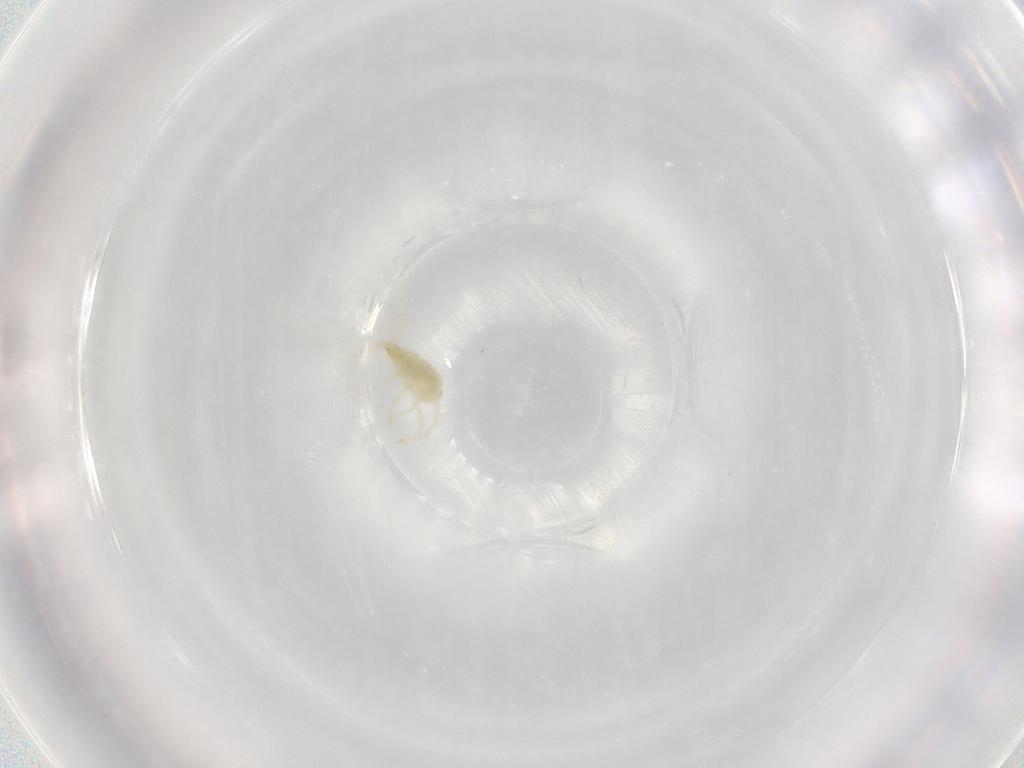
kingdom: Animalia
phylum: Arthropoda
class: Arachnida
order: Trombidiformes
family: Erythraeidae
